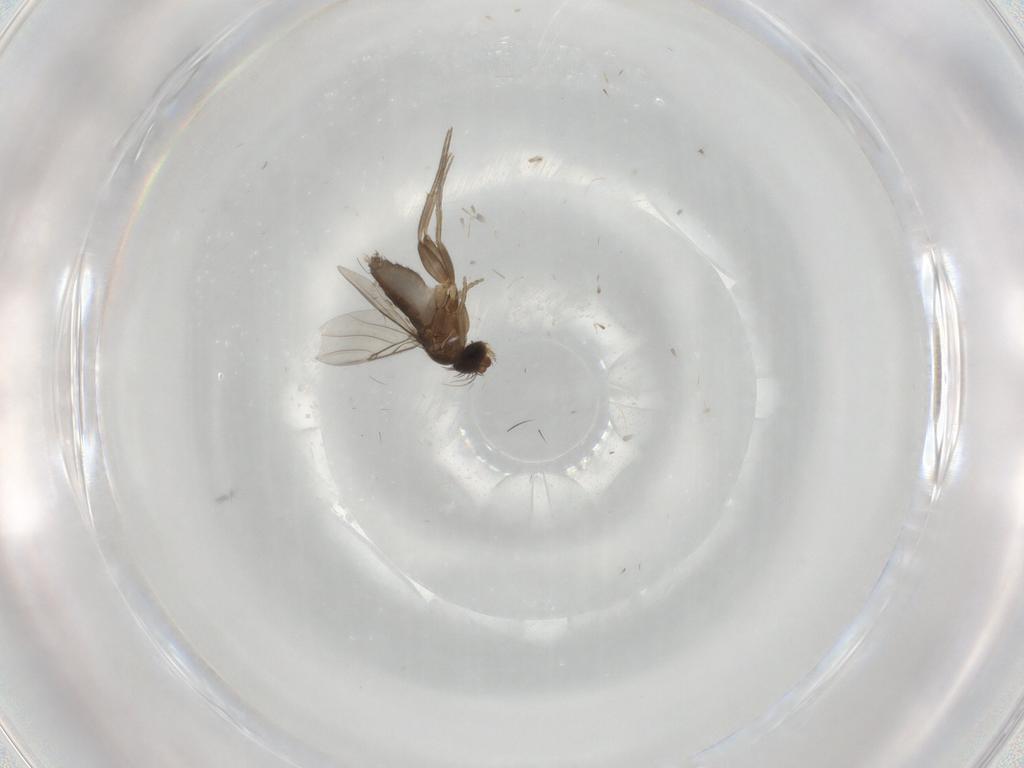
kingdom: Animalia
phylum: Arthropoda
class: Insecta
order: Diptera
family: Phoridae
